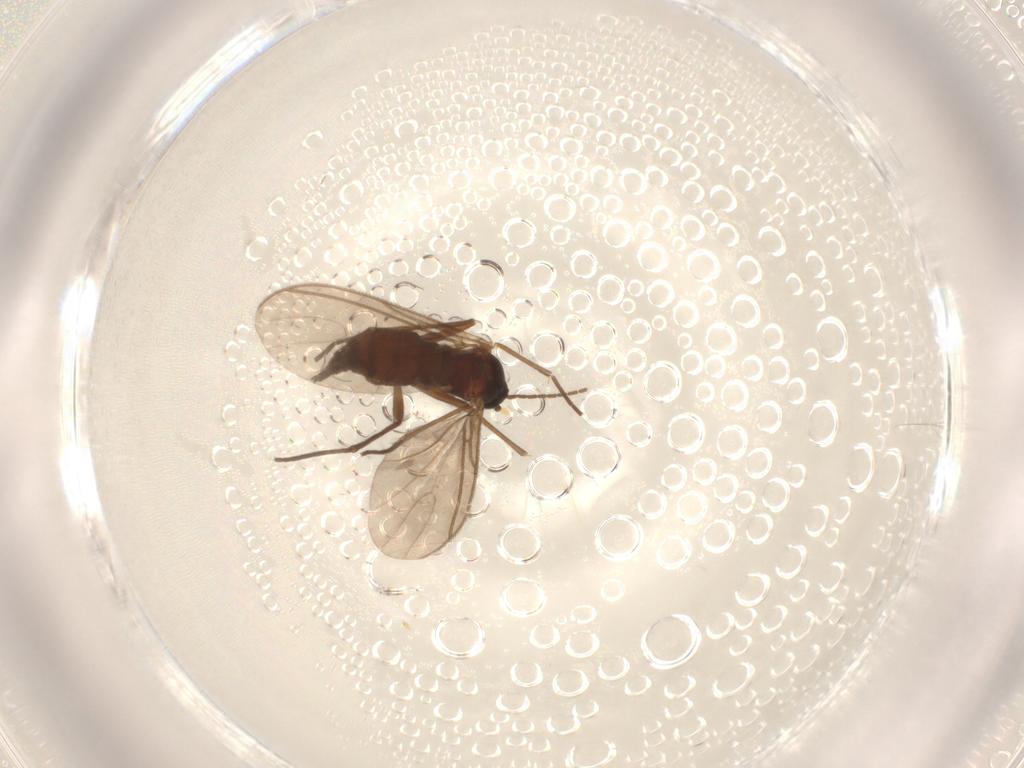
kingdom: Animalia
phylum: Arthropoda
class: Insecta
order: Diptera
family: Sciaridae
